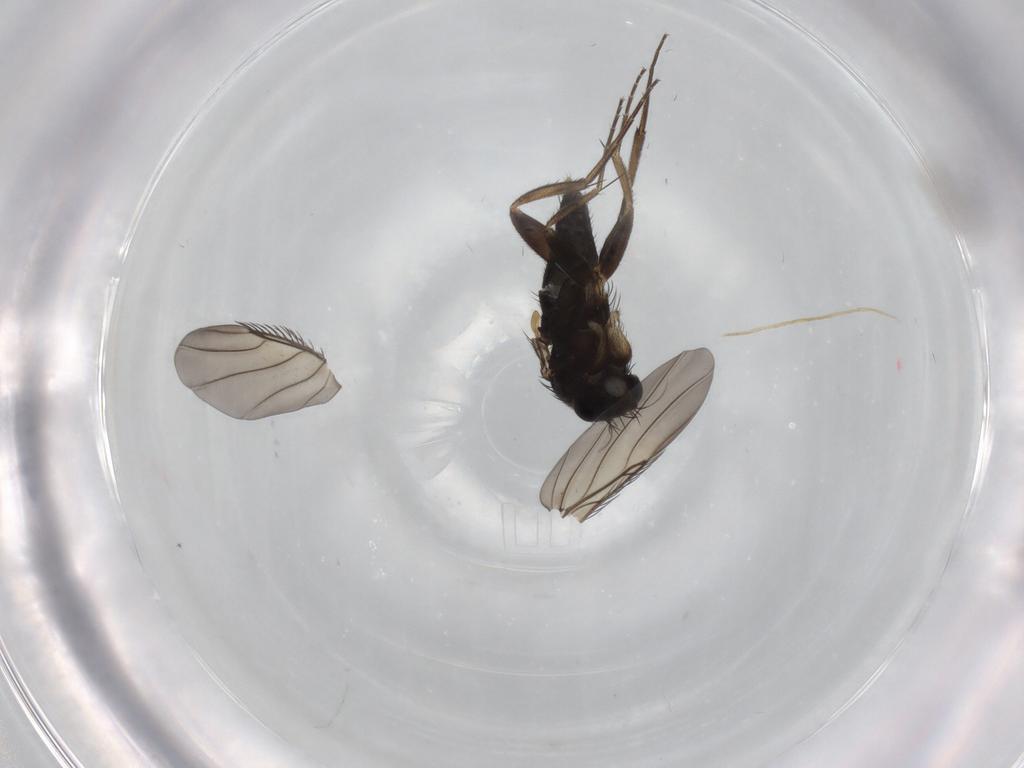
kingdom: Animalia
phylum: Arthropoda
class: Insecta
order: Diptera
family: Phoridae
